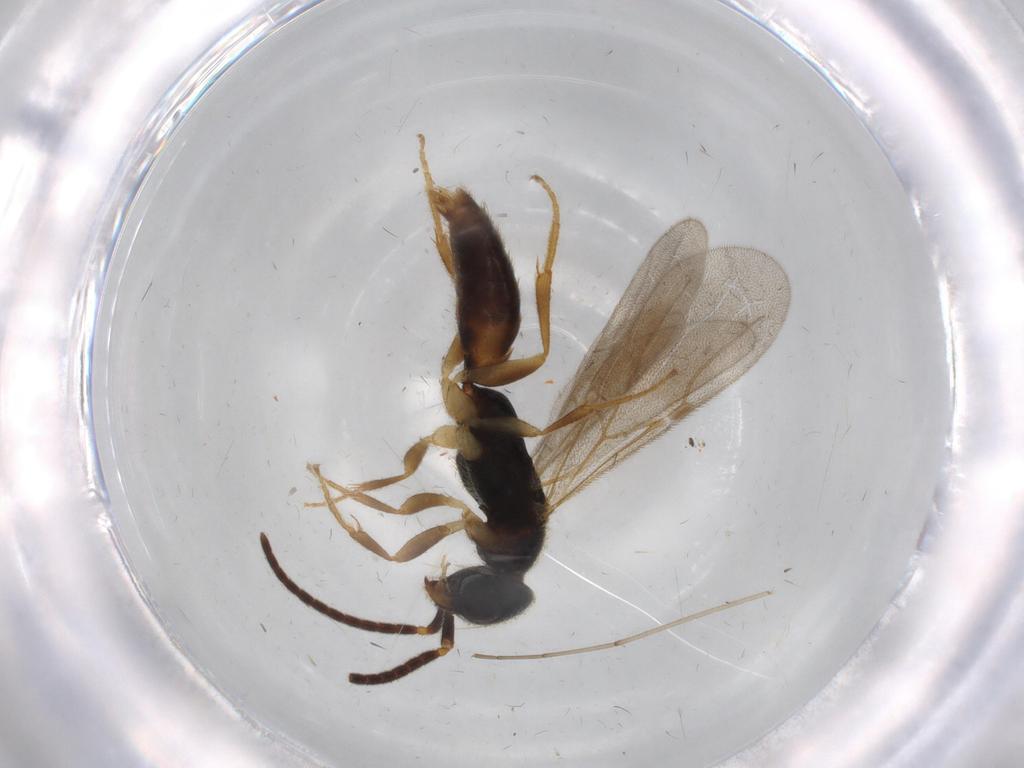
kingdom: Animalia
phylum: Arthropoda
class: Insecta
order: Hymenoptera
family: Bethylidae
